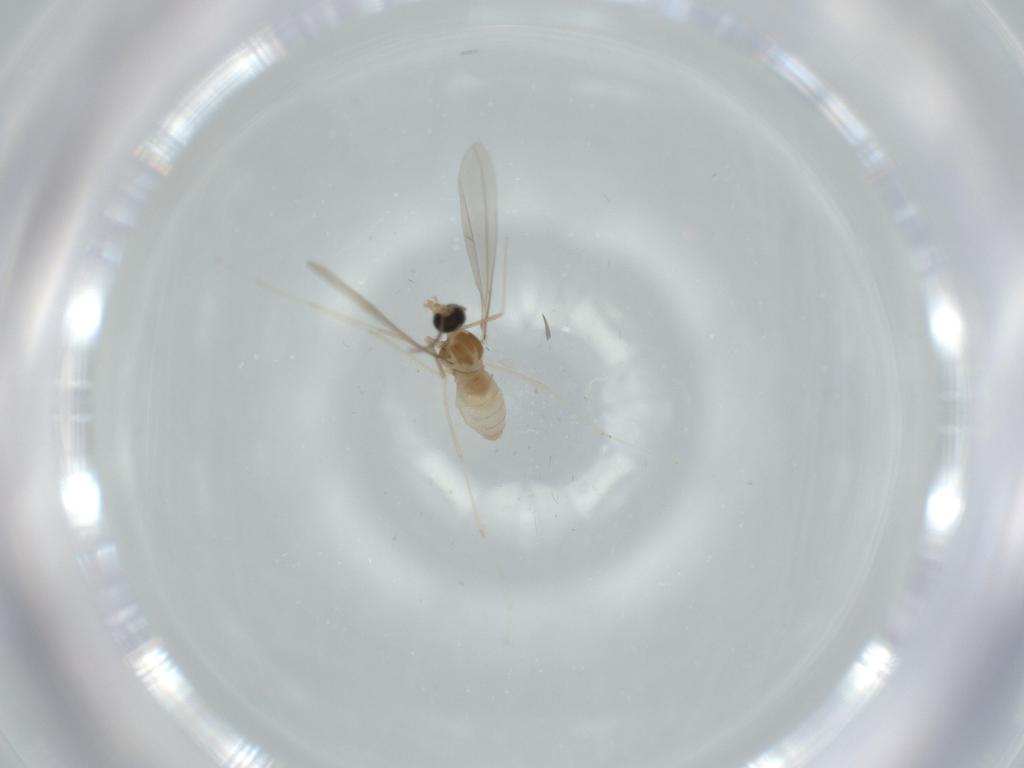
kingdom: Animalia
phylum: Arthropoda
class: Insecta
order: Diptera
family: Cecidomyiidae
